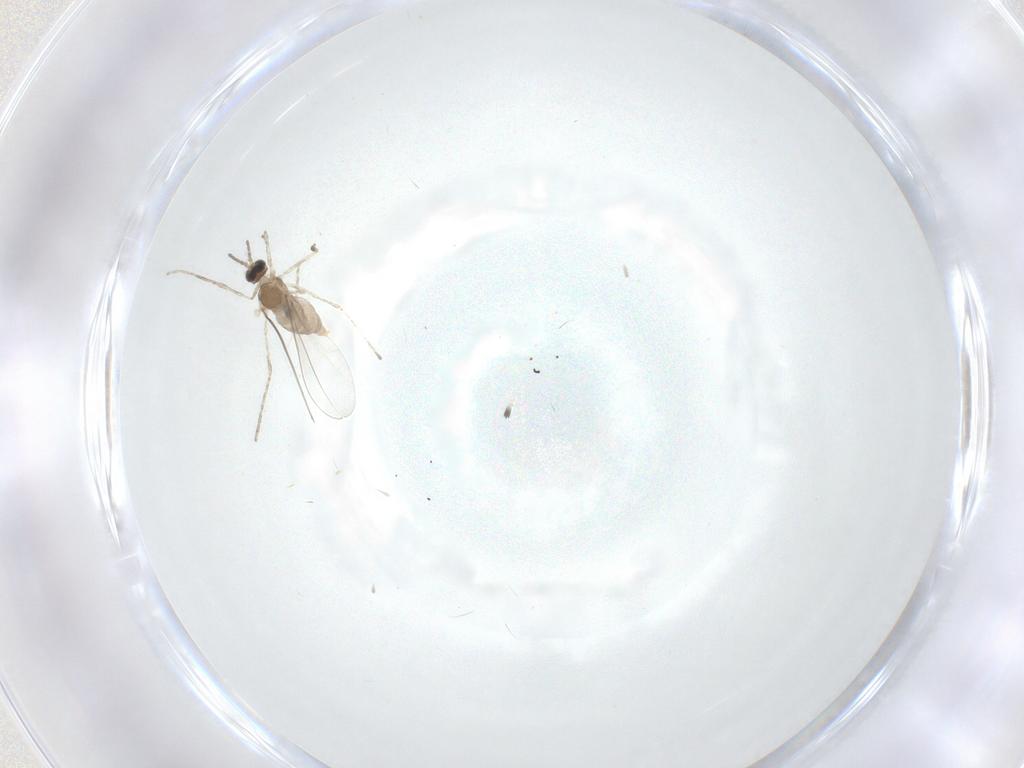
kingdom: Animalia
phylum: Arthropoda
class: Insecta
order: Diptera
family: Cecidomyiidae
